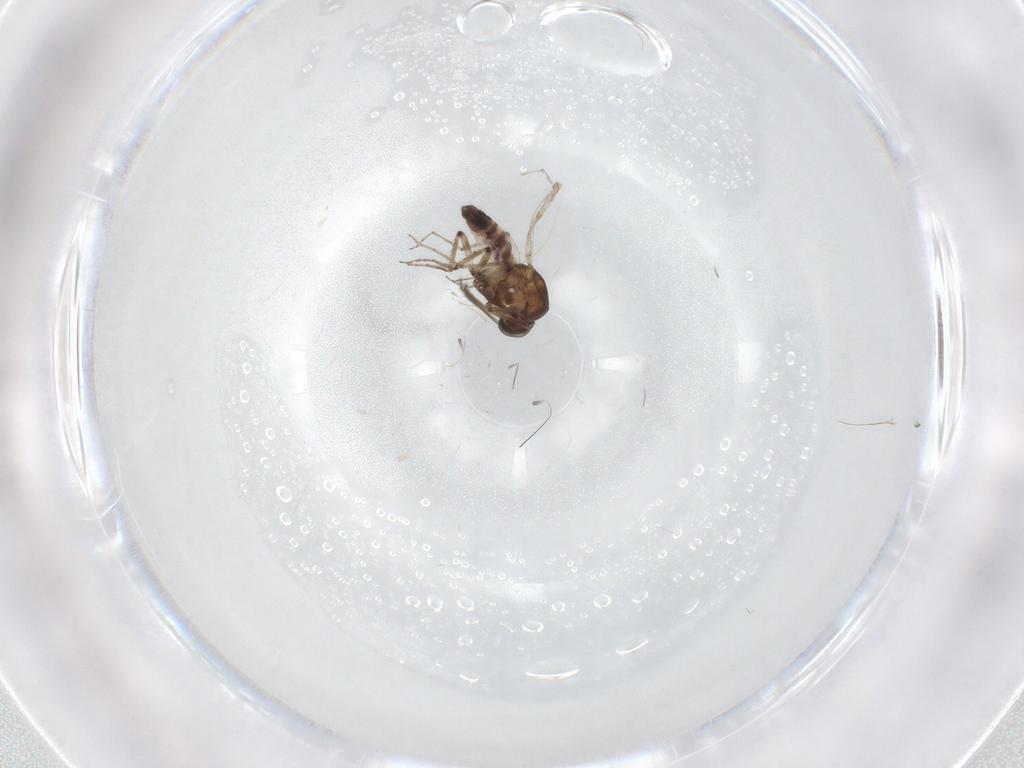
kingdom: Animalia
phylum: Arthropoda
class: Insecta
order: Diptera
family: Ceratopogonidae
